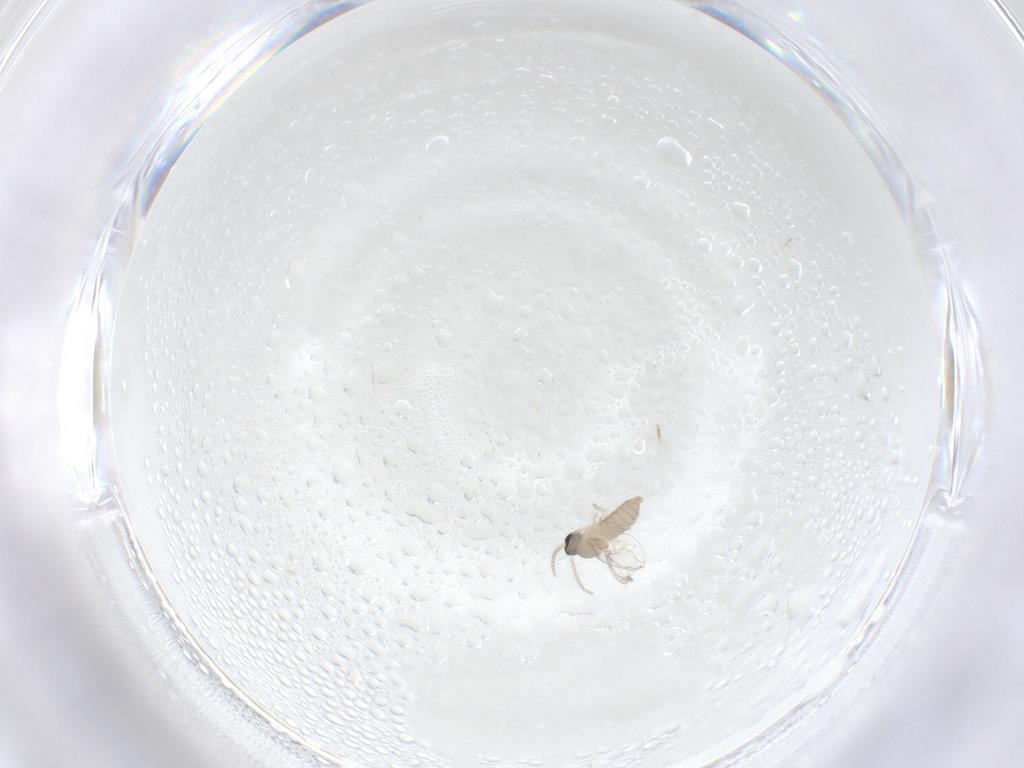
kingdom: Animalia
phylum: Arthropoda
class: Insecta
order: Diptera
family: Cecidomyiidae
